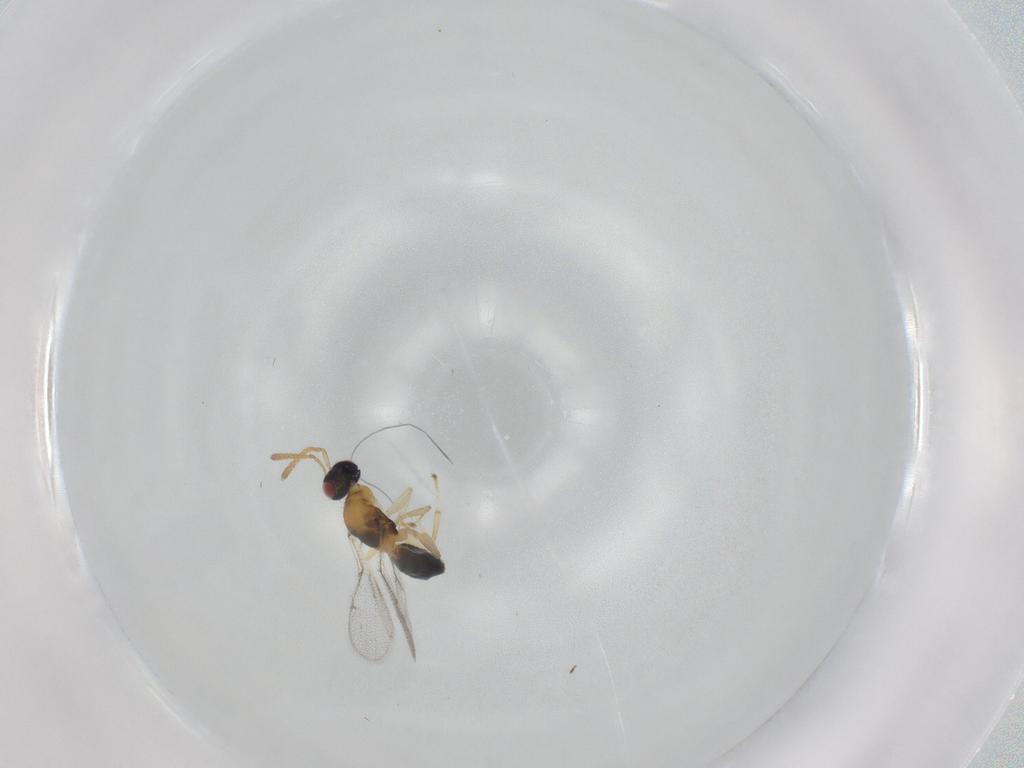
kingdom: Animalia
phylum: Arthropoda
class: Insecta
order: Hymenoptera
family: Torymidae
